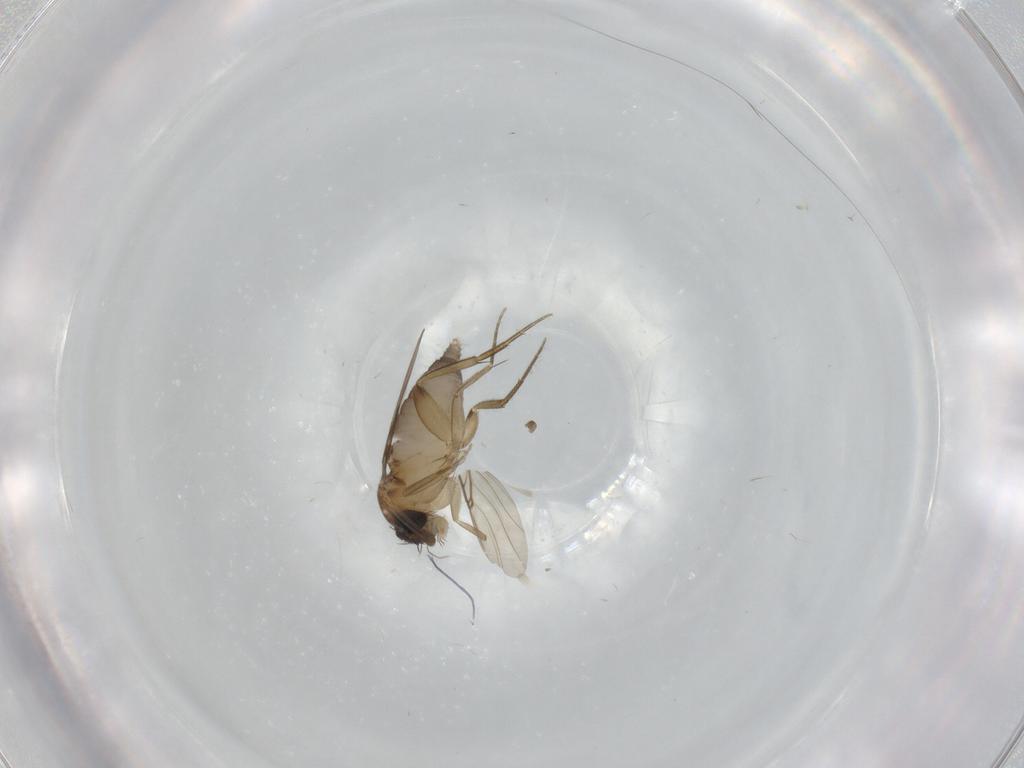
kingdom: Animalia
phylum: Arthropoda
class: Insecta
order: Diptera
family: Phoridae
